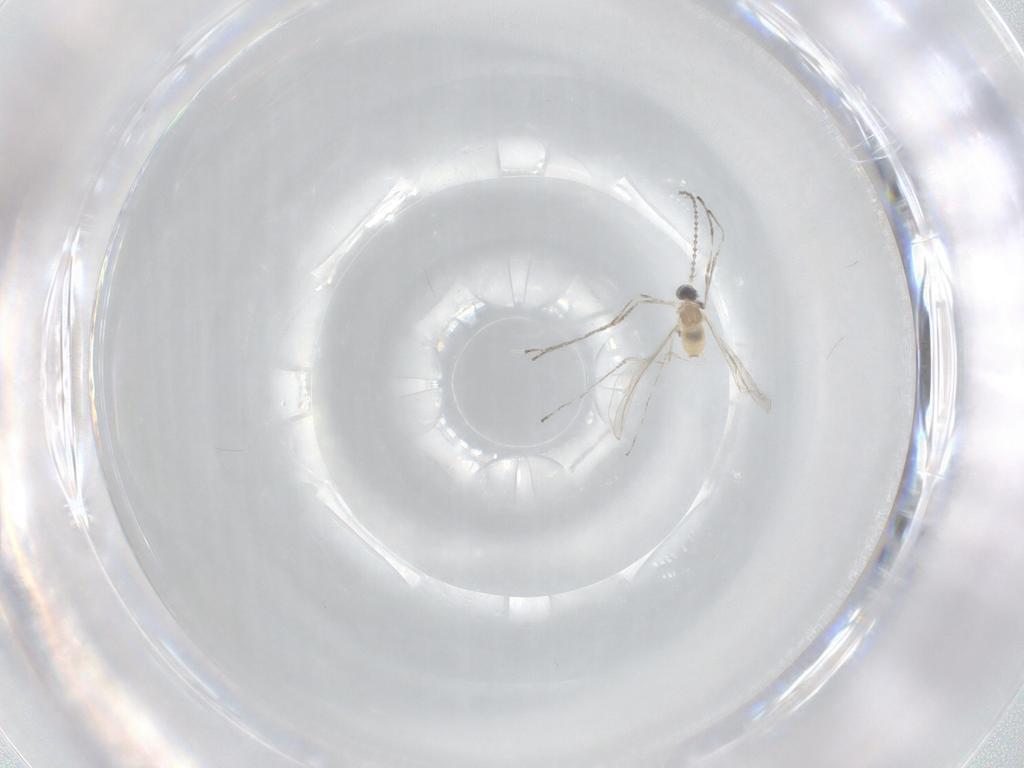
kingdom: Animalia
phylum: Arthropoda
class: Insecta
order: Diptera
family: Cecidomyiidae
